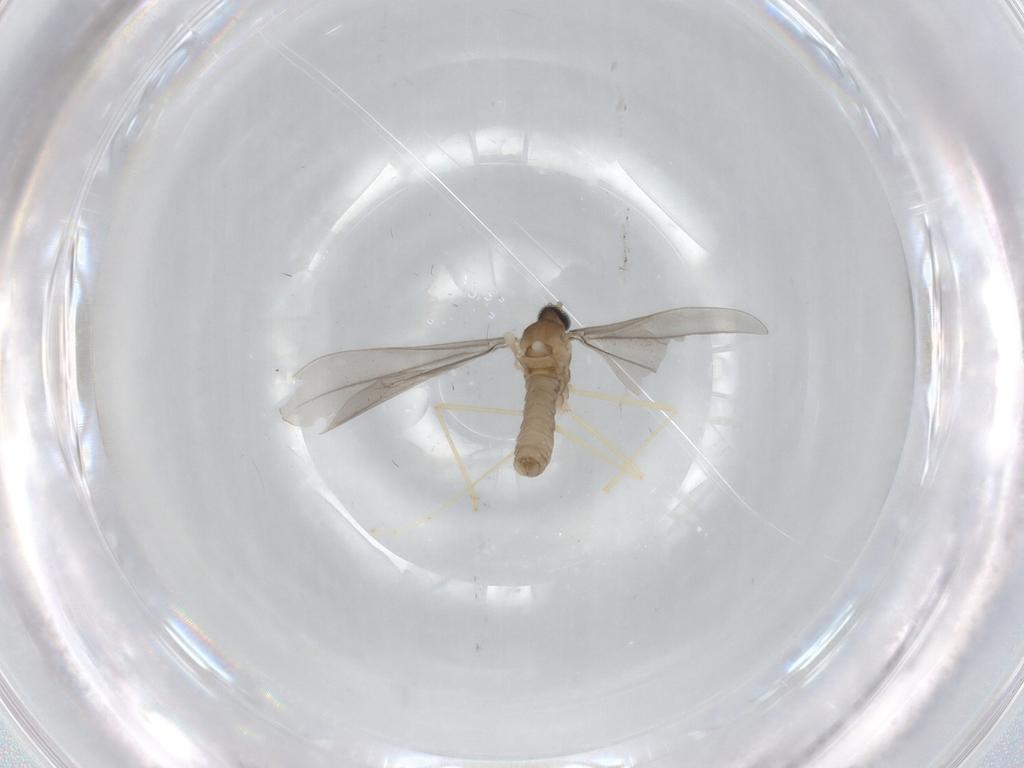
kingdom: Animalia
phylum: Arthropoda
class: Insecta
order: Diptera
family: Cecidomyiidae
